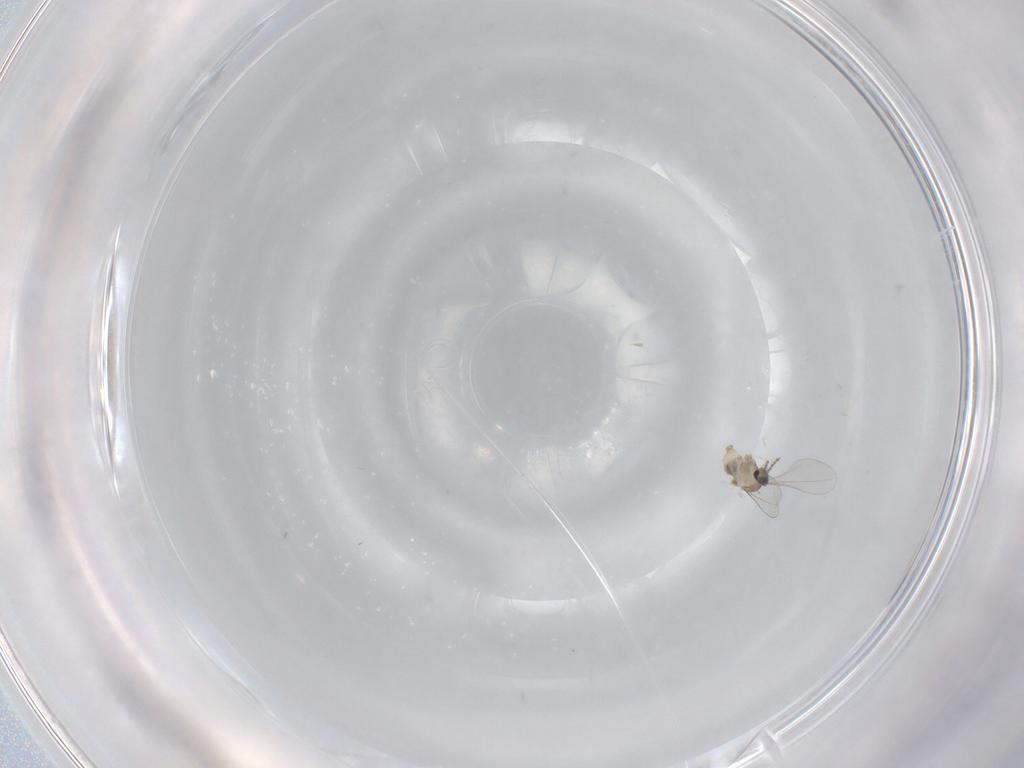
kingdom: Animalia
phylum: Arthropoda
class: Insecta
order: Diptera
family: Cecidomyiidae
